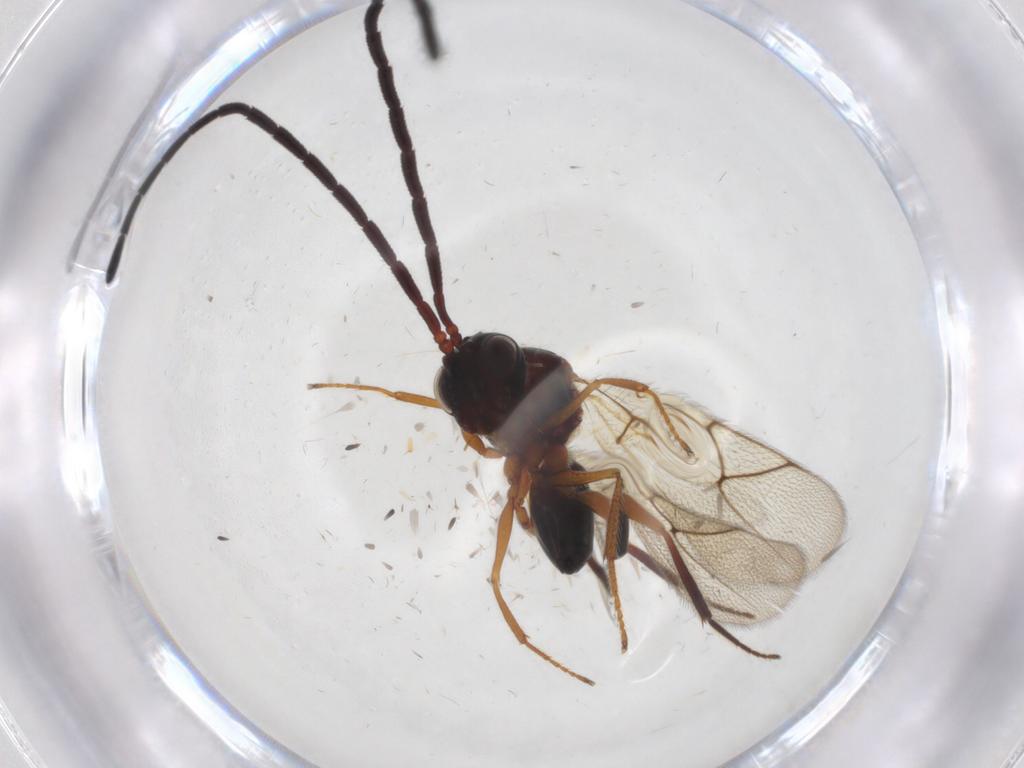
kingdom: Animalia
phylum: Arthropoda
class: Insecta
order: Hymenoptera
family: Figitidae
